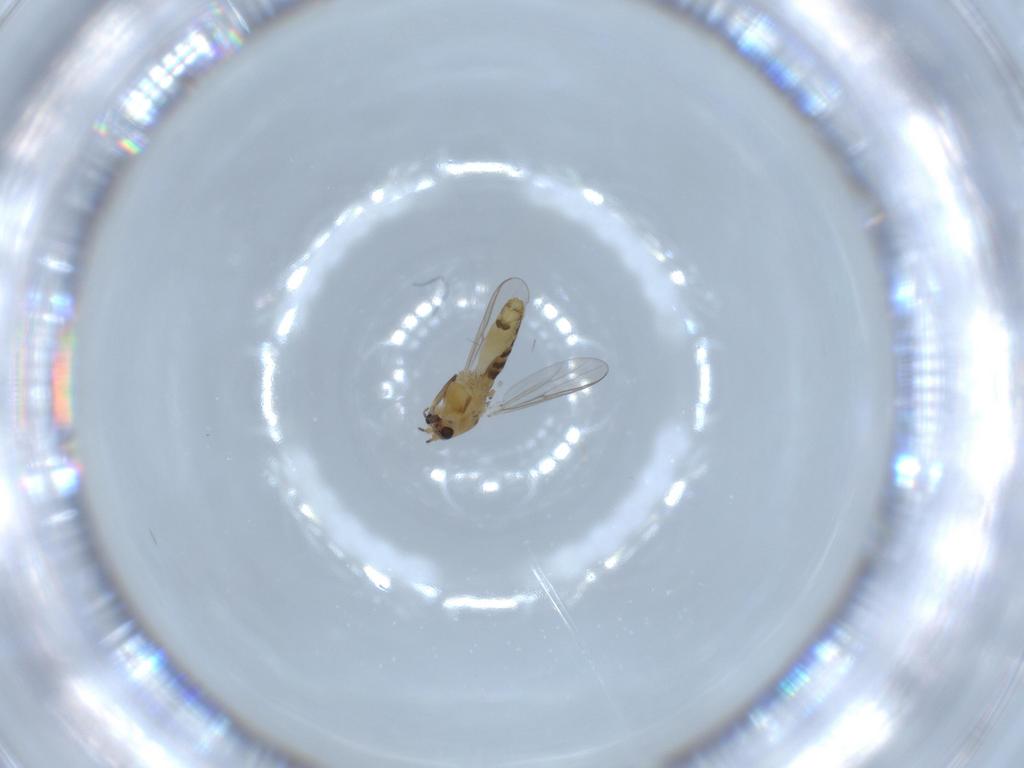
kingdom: Animalia
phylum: Arthropoda
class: Insecta
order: Diptera
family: Chironomidae
